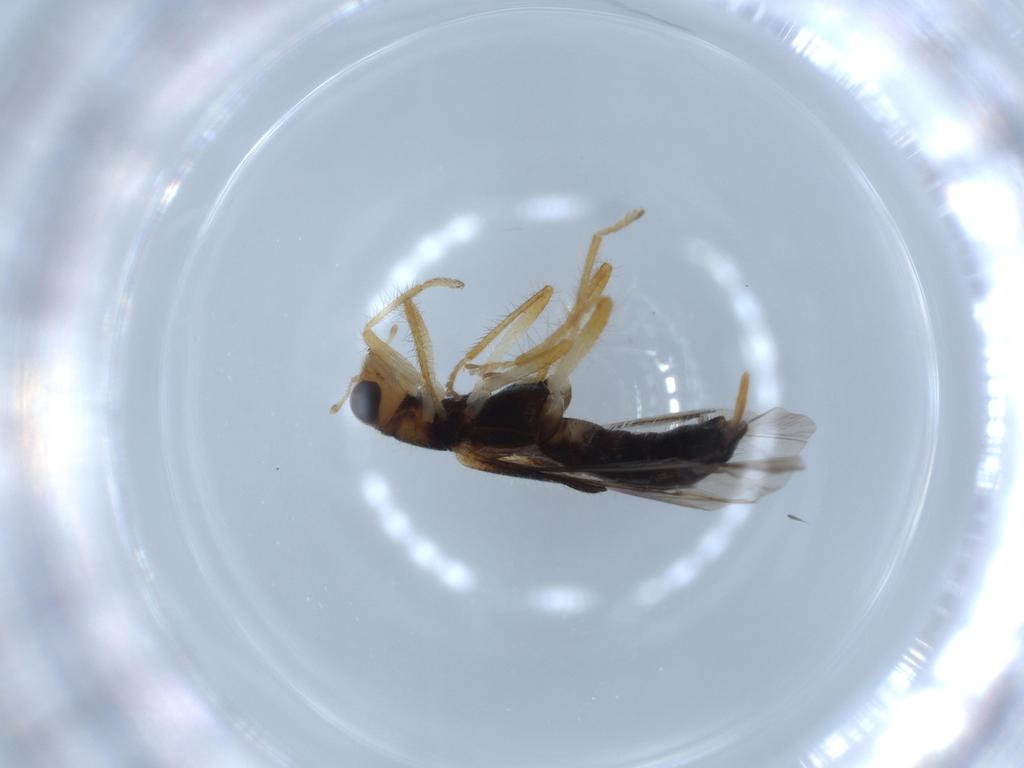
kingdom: Animalia
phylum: Arthropoda
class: Insecta
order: Coleoptera
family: Cleridae
